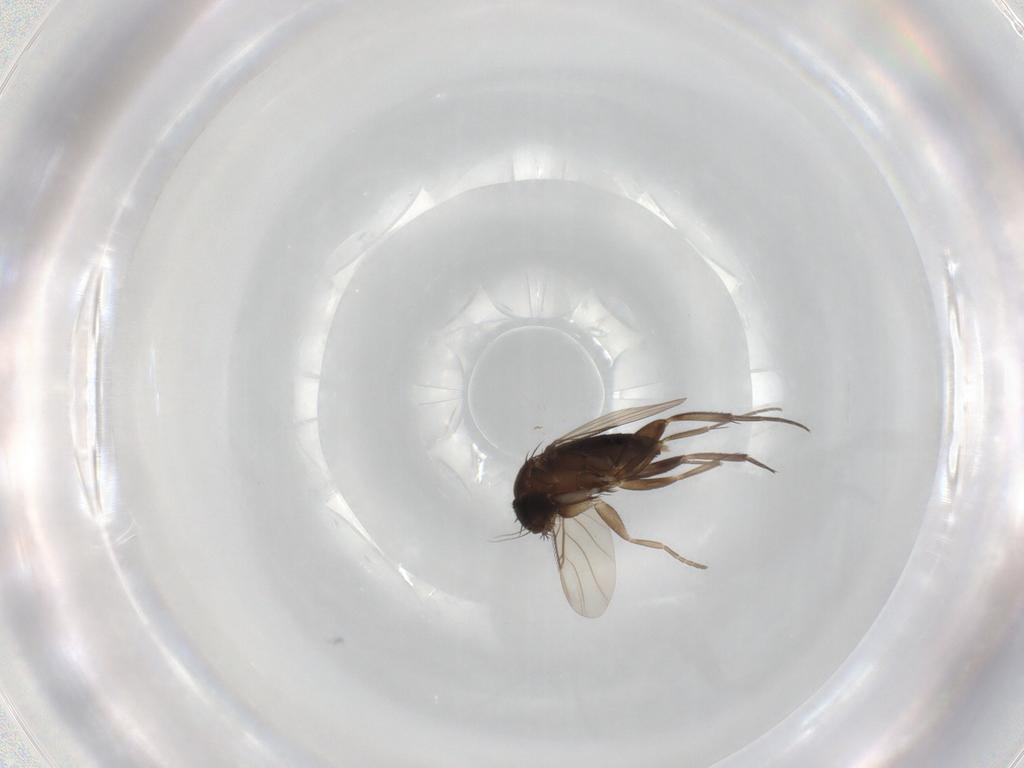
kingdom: Animalia
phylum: Arthropoda
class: Insecta
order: Diptera
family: Phoridae
